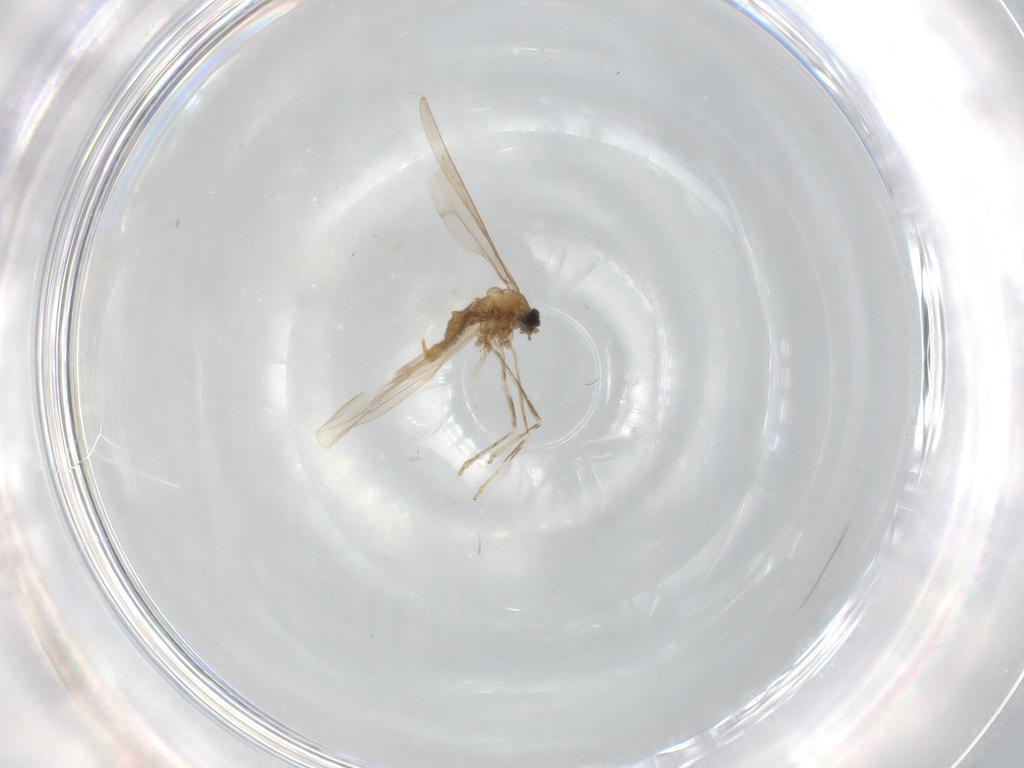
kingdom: Animalia
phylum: Arthropoda
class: Insecta
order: Diptera
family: Cecidomyiidae
